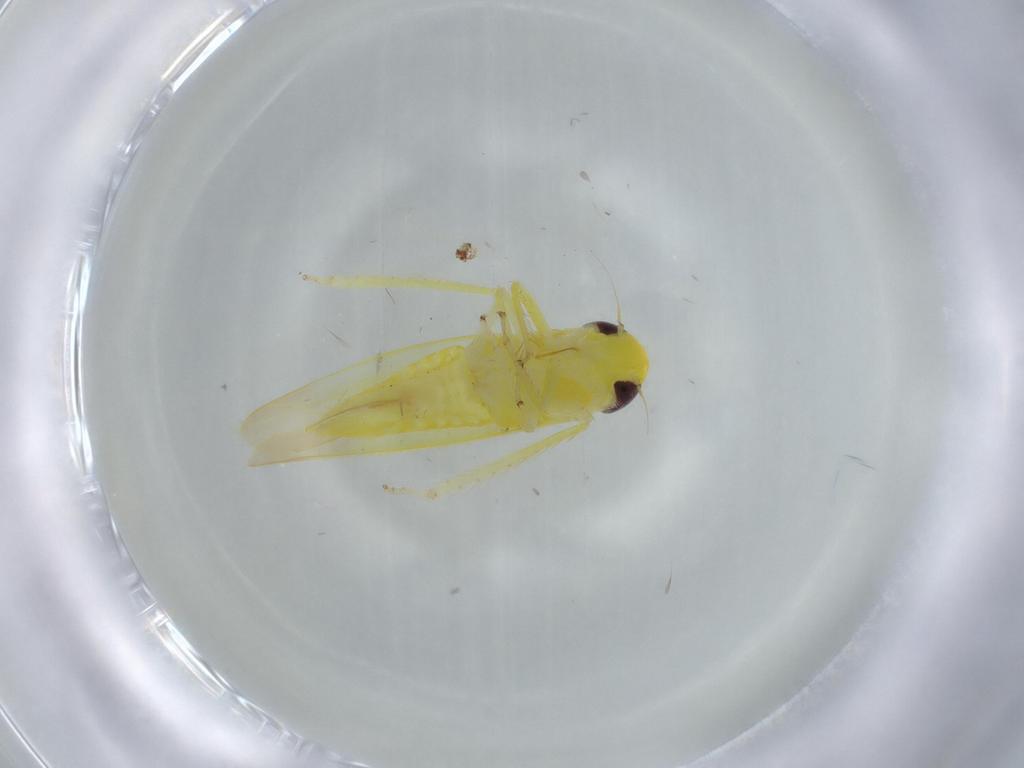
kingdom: Animalia
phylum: Arthropoda
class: Insecta
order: Hemiptera
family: Cicadellidae
